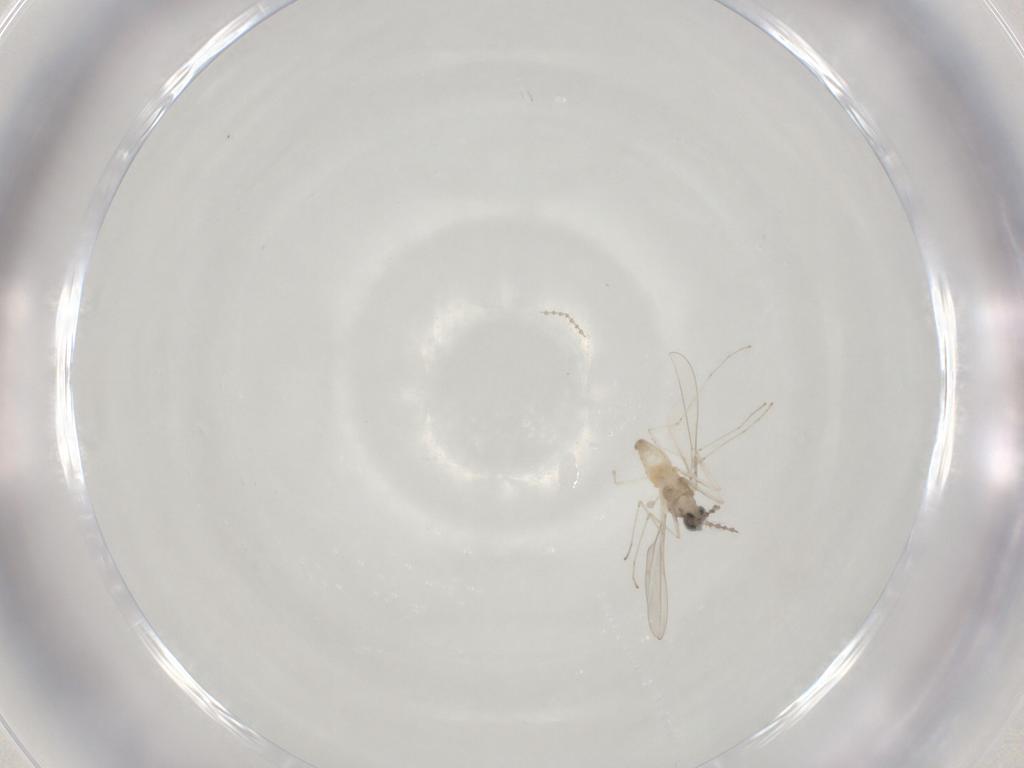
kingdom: Animalia
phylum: Arthropoda
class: Insecta
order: Diptera
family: Cecidomyiidae
